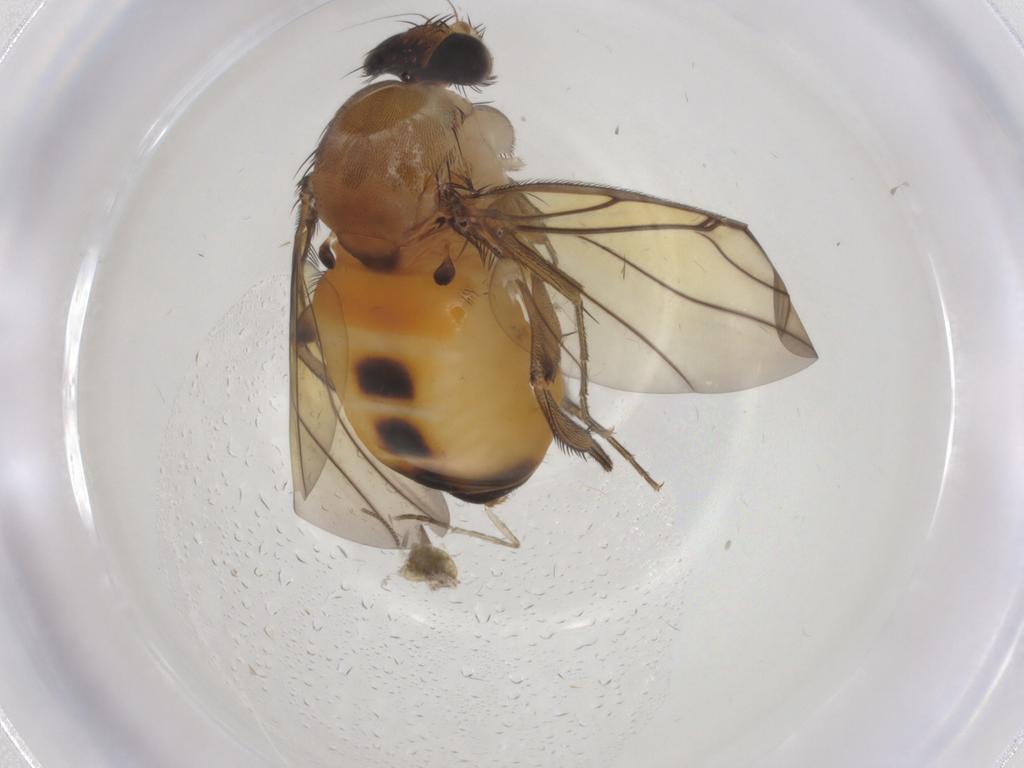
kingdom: Animalia
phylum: Arthropoda
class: Insecta
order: Diptera
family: Phoridae
